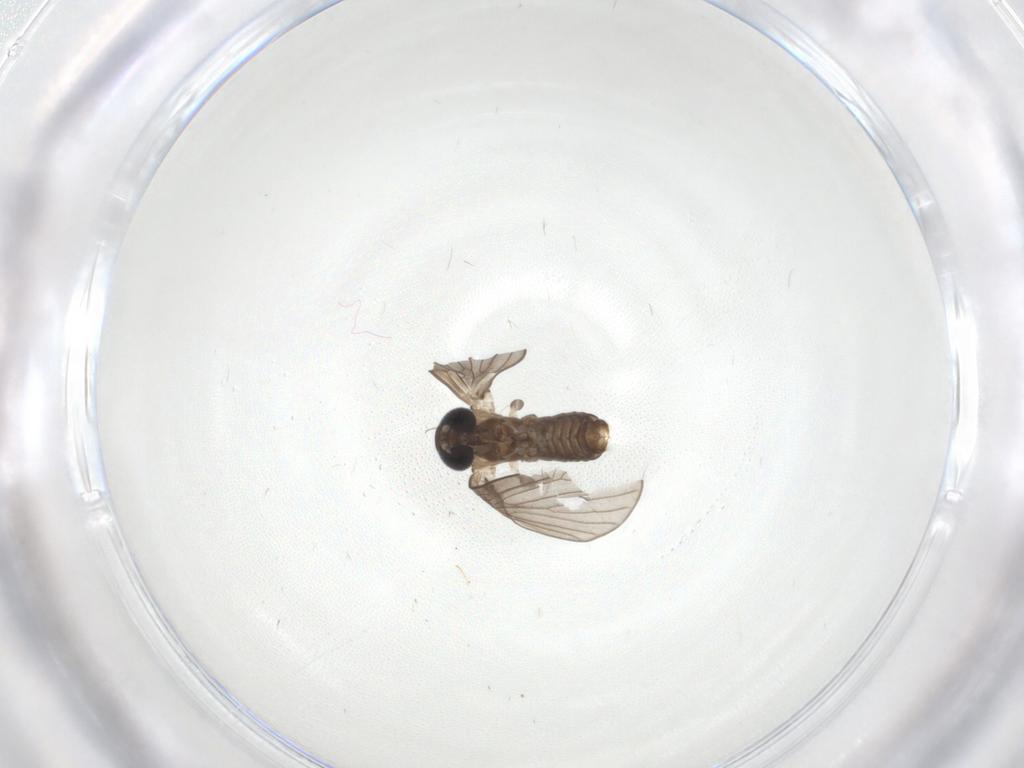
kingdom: Animalia
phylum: Arthropoda
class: Insecta
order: Diptera
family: Psychodidae
